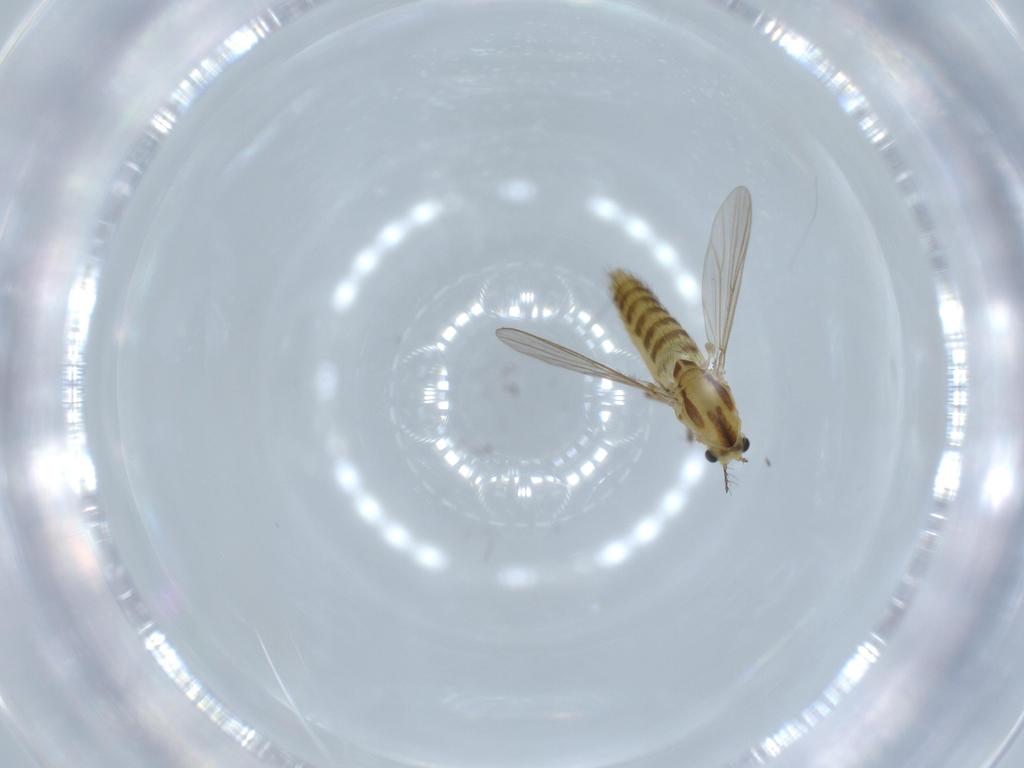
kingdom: Animalia
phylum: Arthropoda
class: Insecta
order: Diptera
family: Chironomidae
